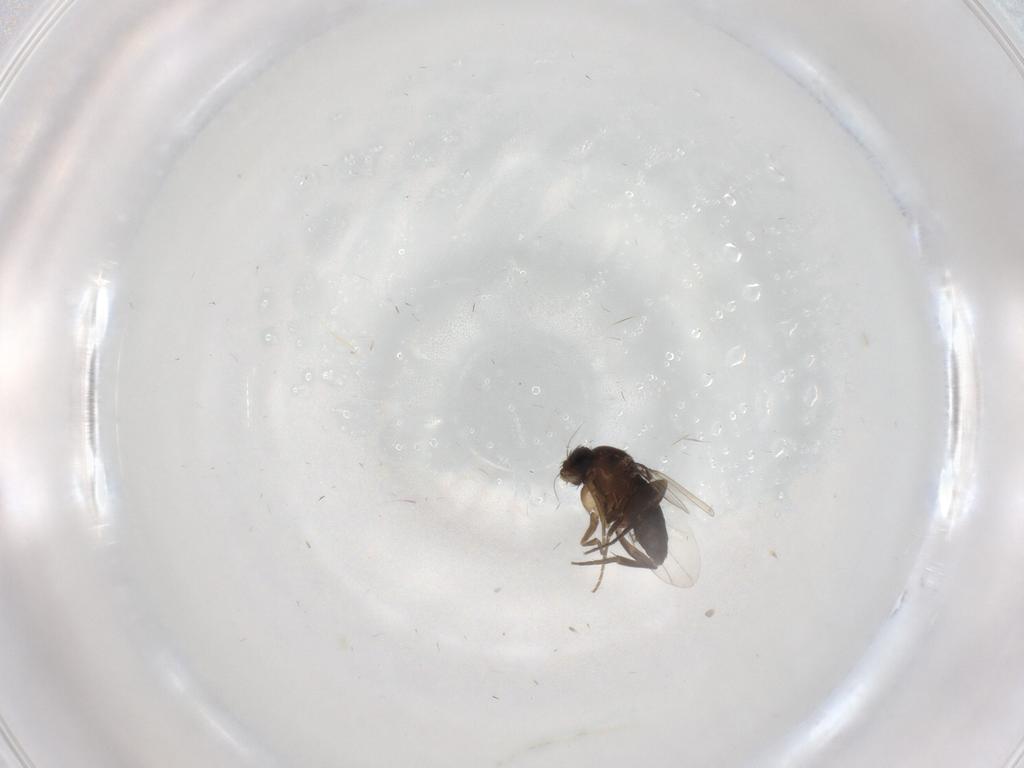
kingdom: Animalia
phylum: Arthropoda
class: Insecta
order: Diptera
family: Phoridae
